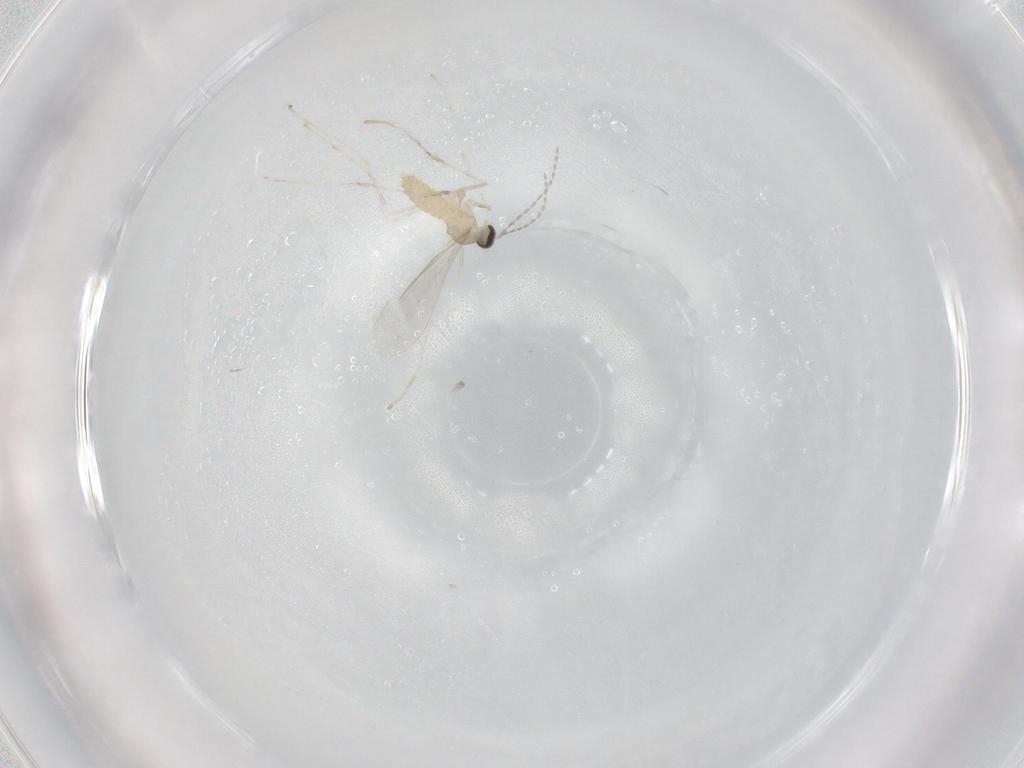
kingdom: Animalia
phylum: Arthropoda
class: Insecta
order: Diptera
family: Cecidomyiidae
